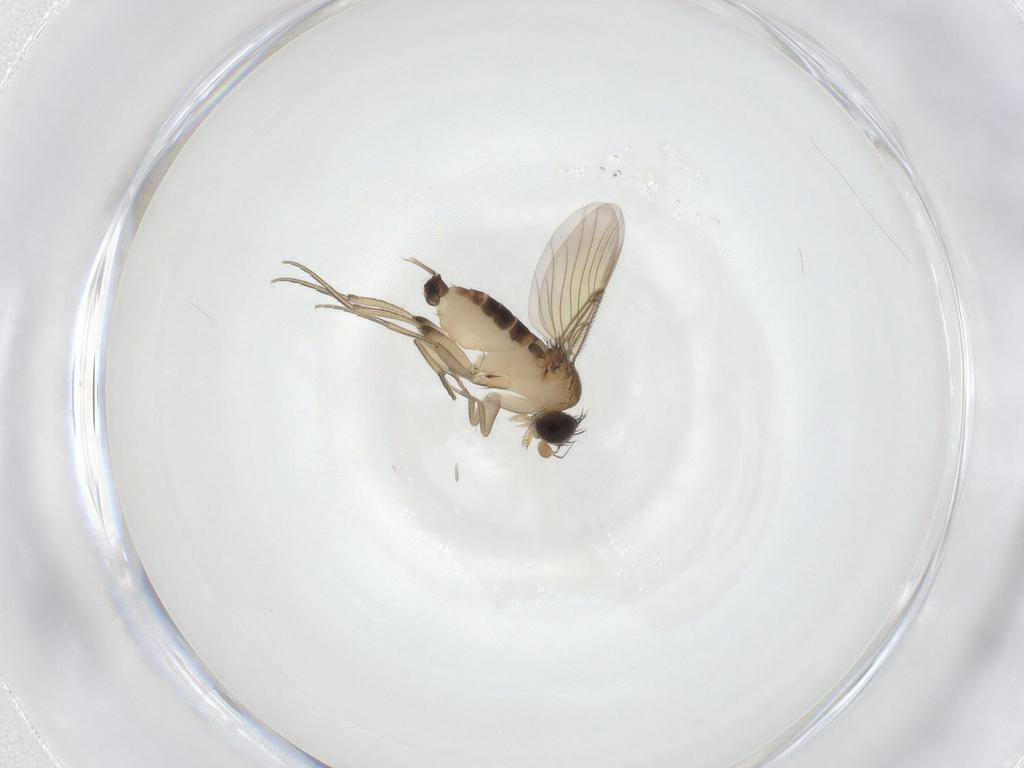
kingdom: Animalia
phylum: Arthropoda
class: Insecta
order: Diptera
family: Phoridae
